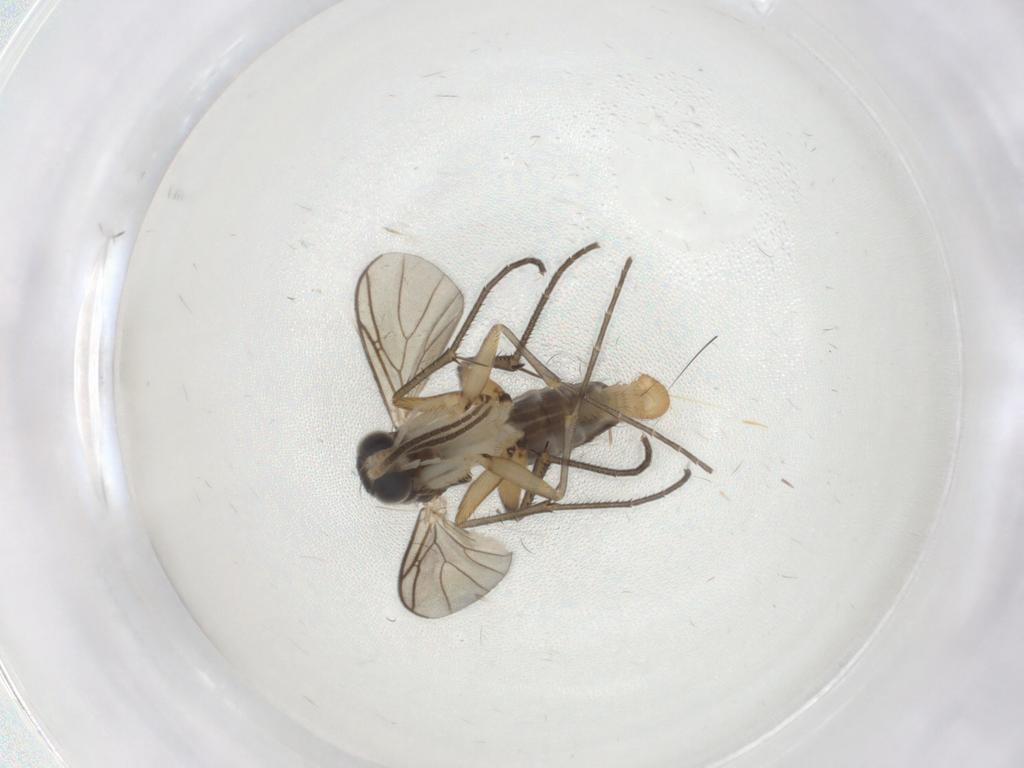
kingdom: Animalia
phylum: Arthropoda
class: Insecta
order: Diptera
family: Mycetophilidae
